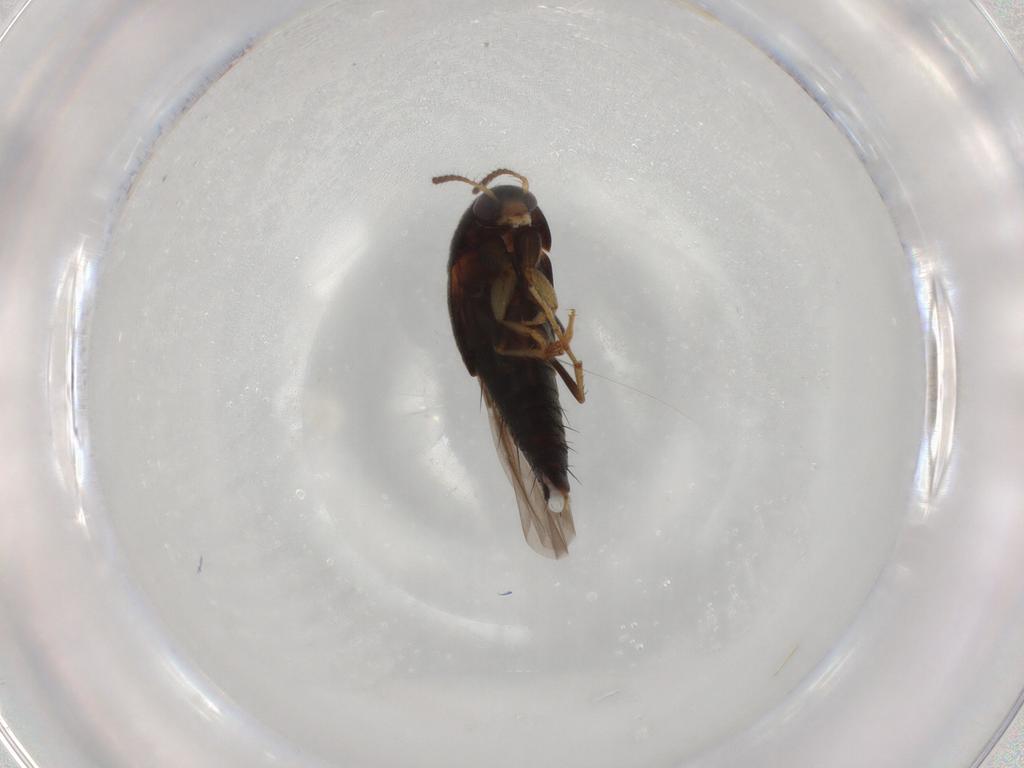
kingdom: Animalia
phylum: Arthropoda
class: Insecta
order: Coleoptera
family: Staphylinidae
